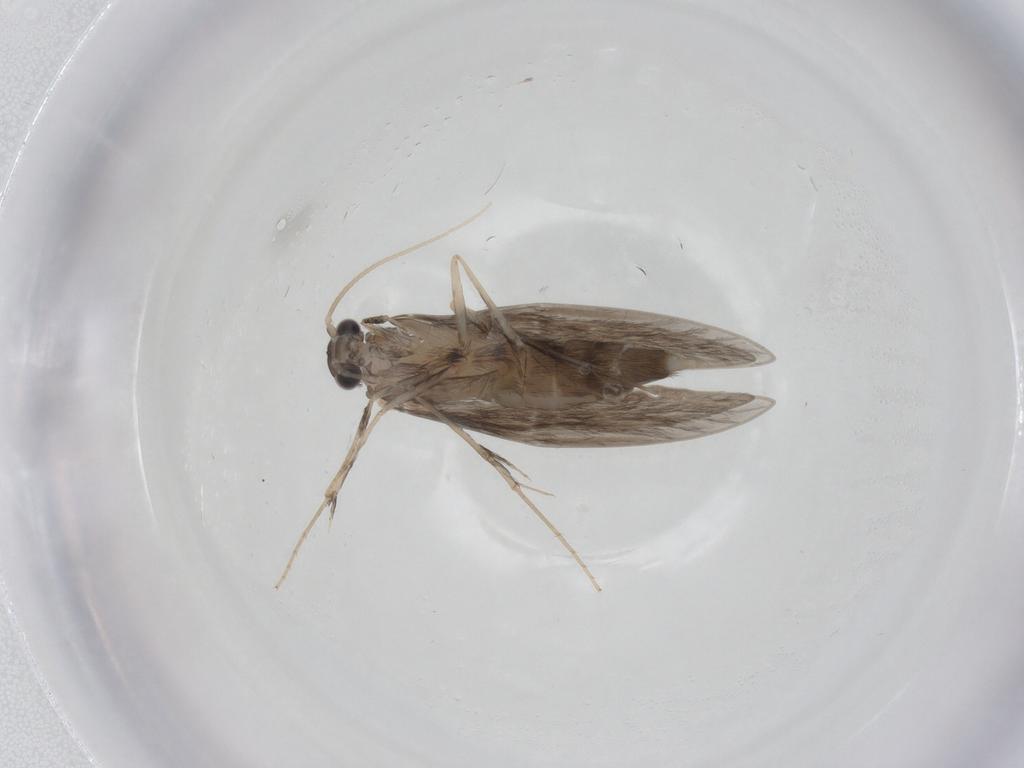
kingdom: Animalia
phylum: Arthropoda
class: Insecta
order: Trichoptera
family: Hydroptilidae
